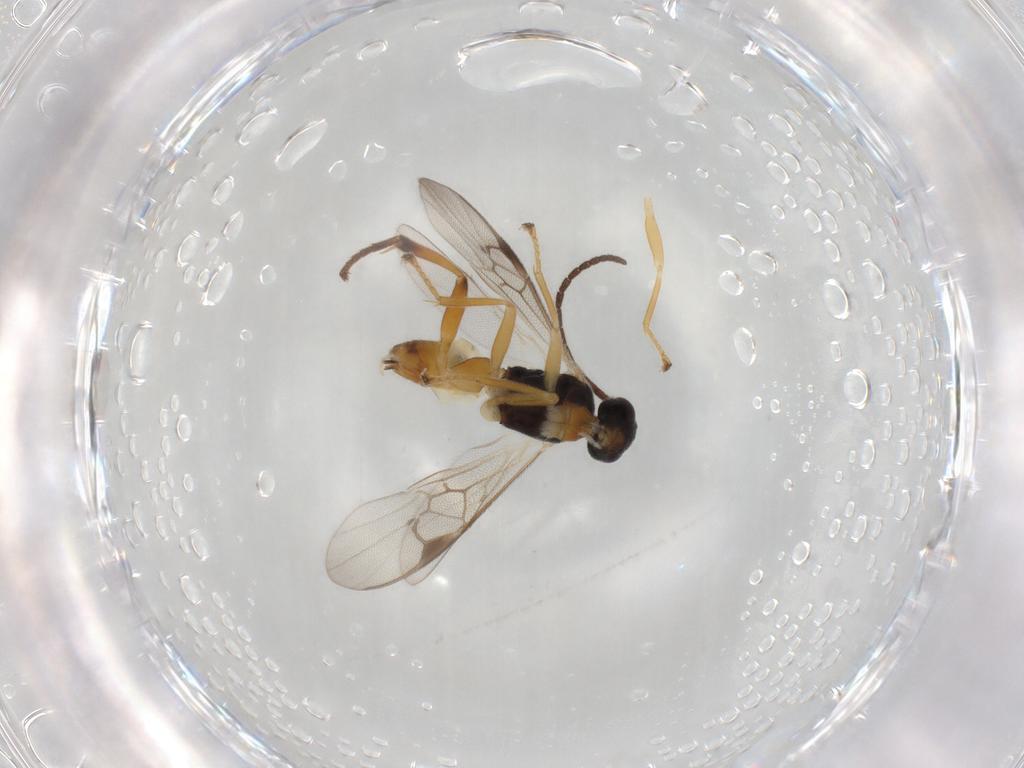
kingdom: Animalia
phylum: Arthropoda
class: Insecta
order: Hymenoptera
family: Braconidae
